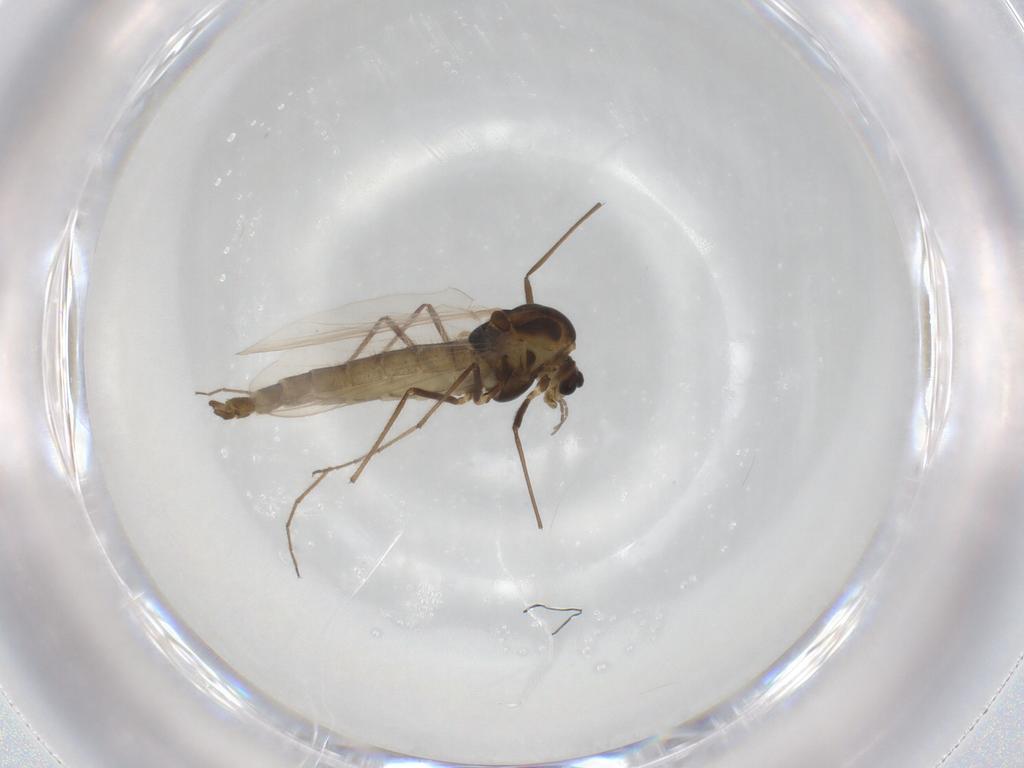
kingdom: Animalia
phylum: Arthropoda
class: Insecta
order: Diptera
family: Chironomidae
